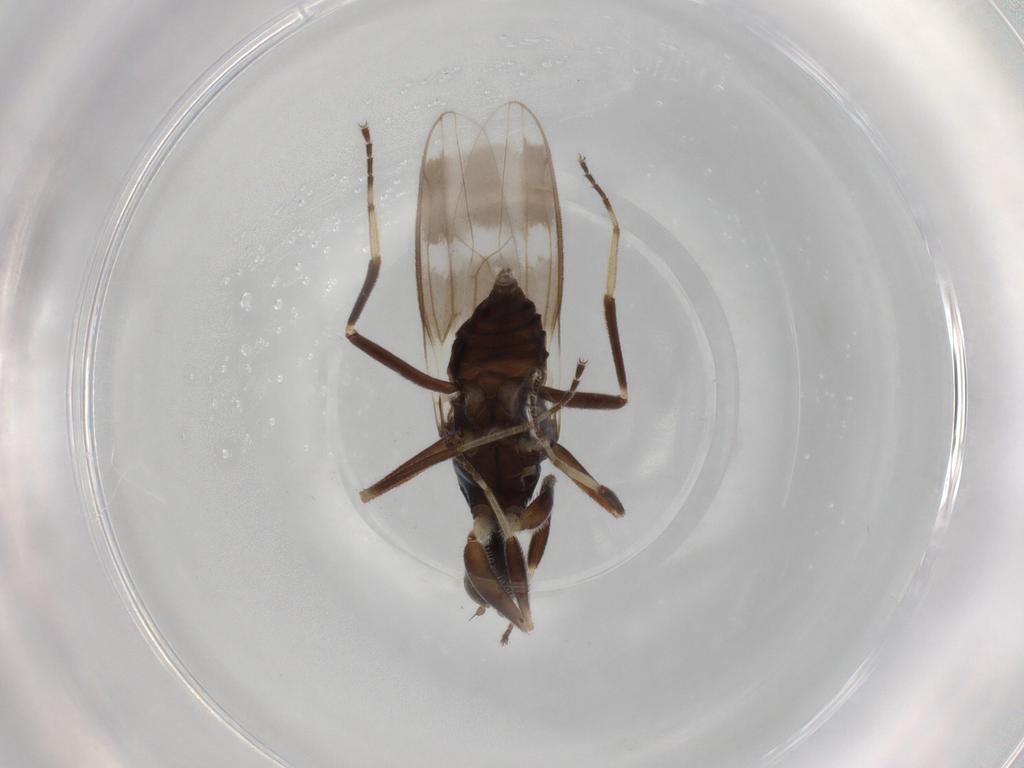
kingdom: Animalia
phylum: Arthropoda
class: Insecta
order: Diptera
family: Hybotidae
